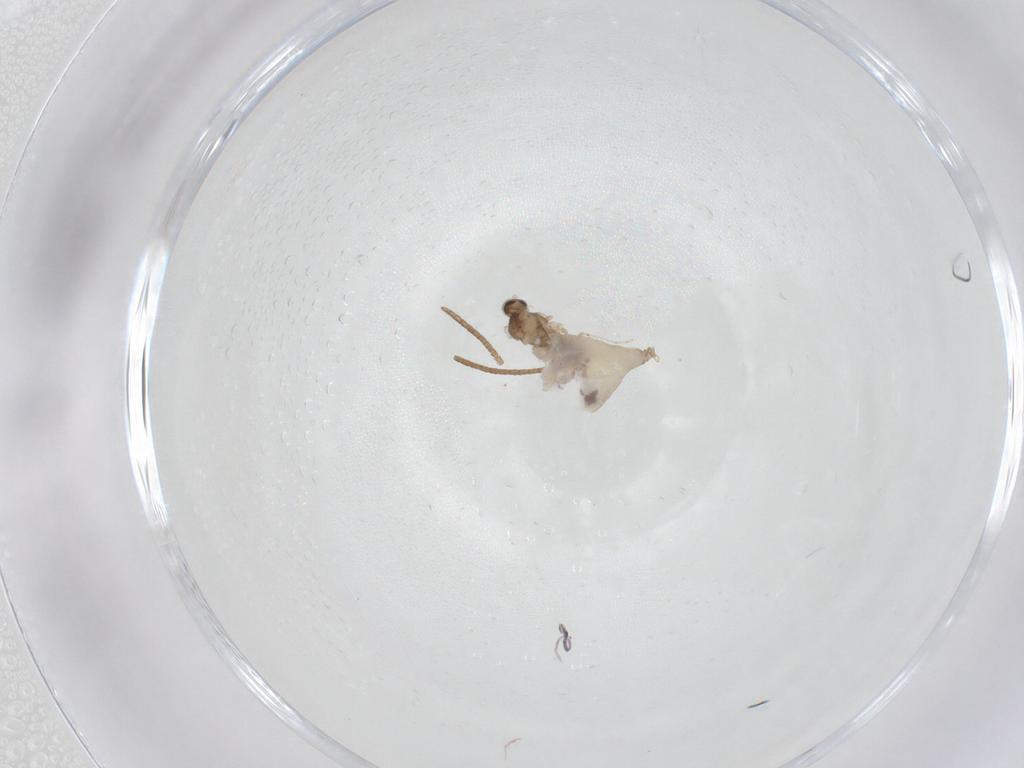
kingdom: Animalia
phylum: Arthropoda
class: Insecta
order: Diptera
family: Cecidomyiidae
